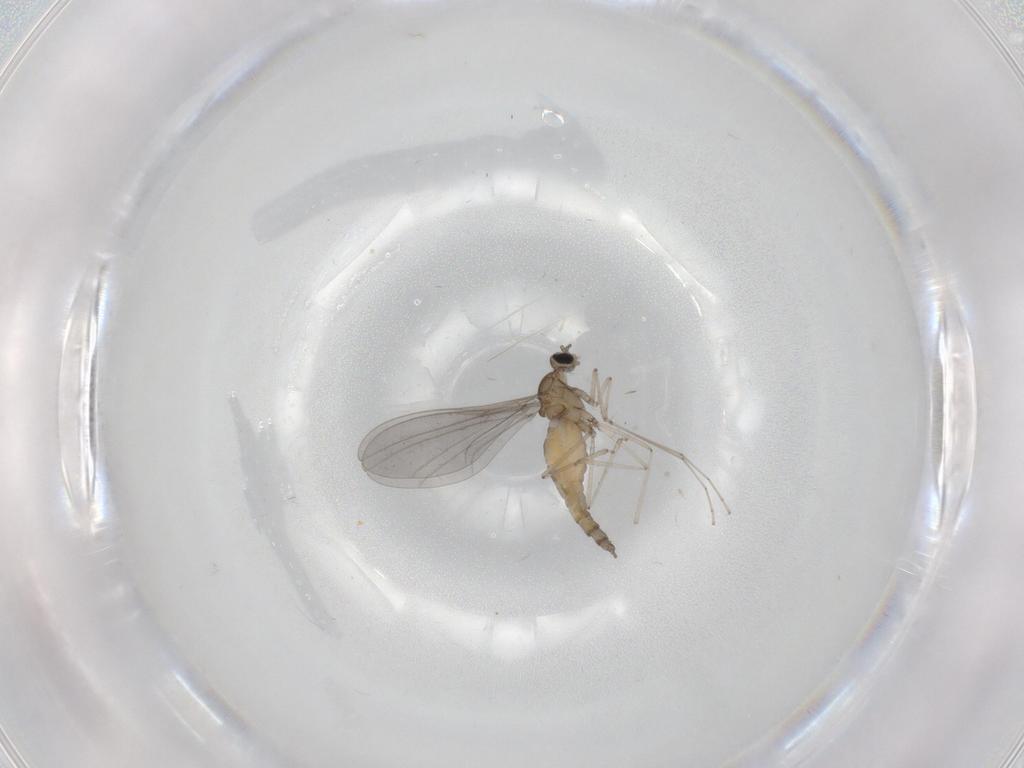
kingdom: Animalia
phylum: Arthropoda
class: Insecta
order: Diptera
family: Cecidomyiidae
